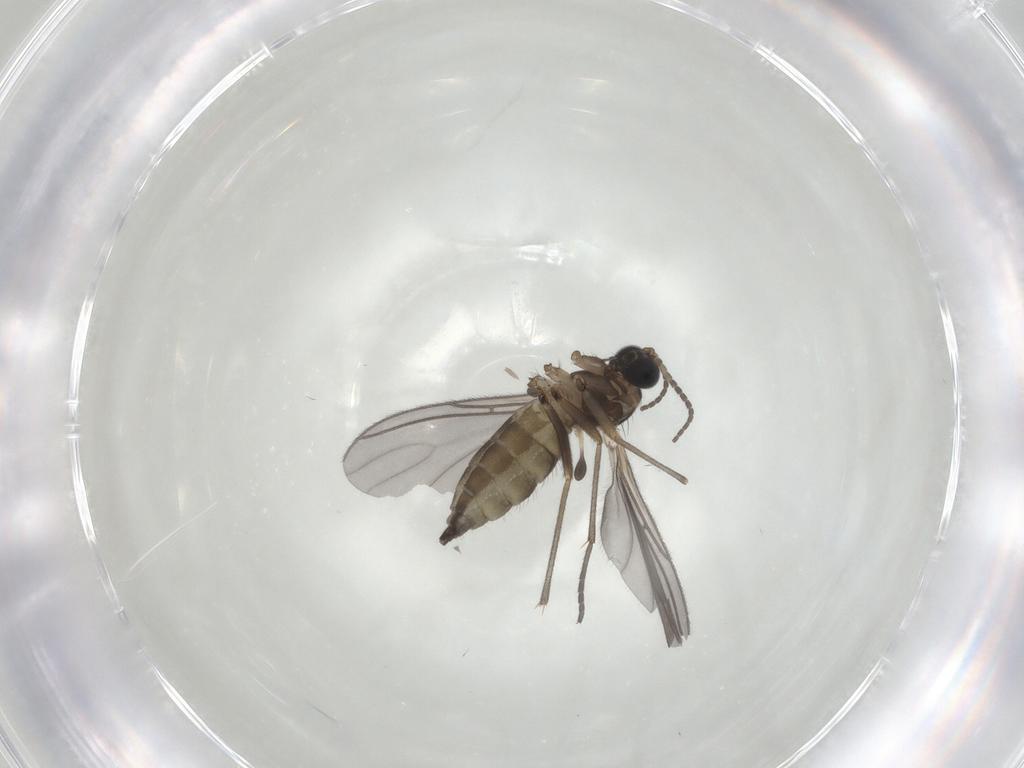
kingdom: Animalia
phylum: Arthropoda
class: Insecta
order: Diptera
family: Sciaridae
